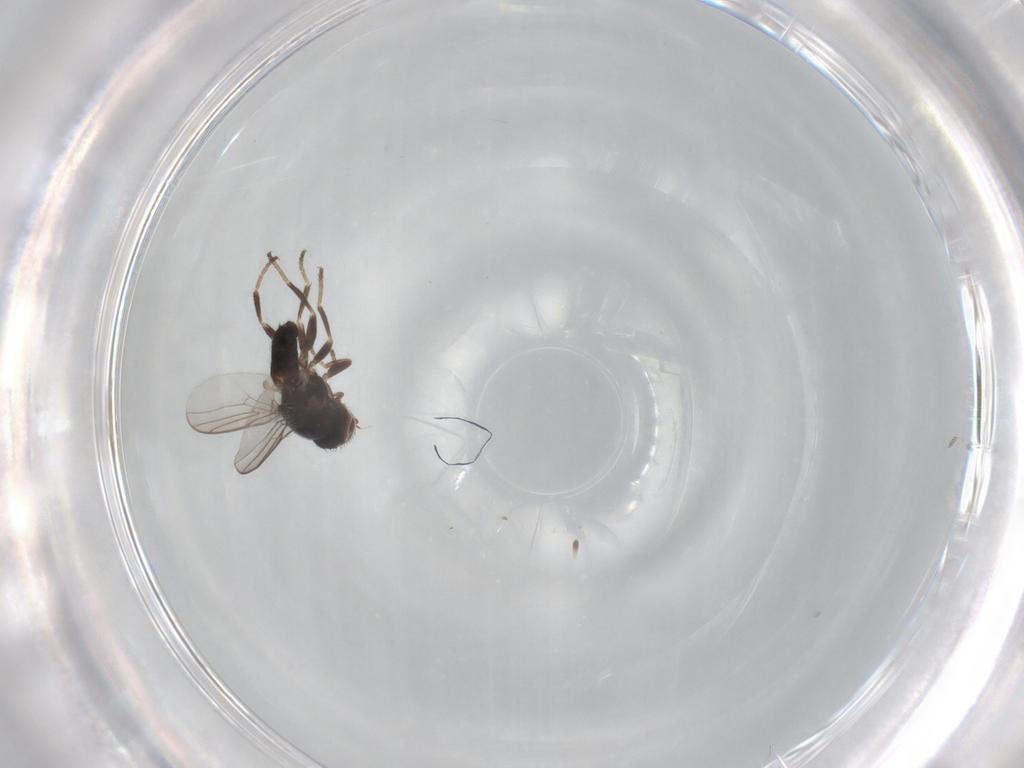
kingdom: Animalia
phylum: Arthropoda
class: Insecta
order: Diptera
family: Chloropidae
